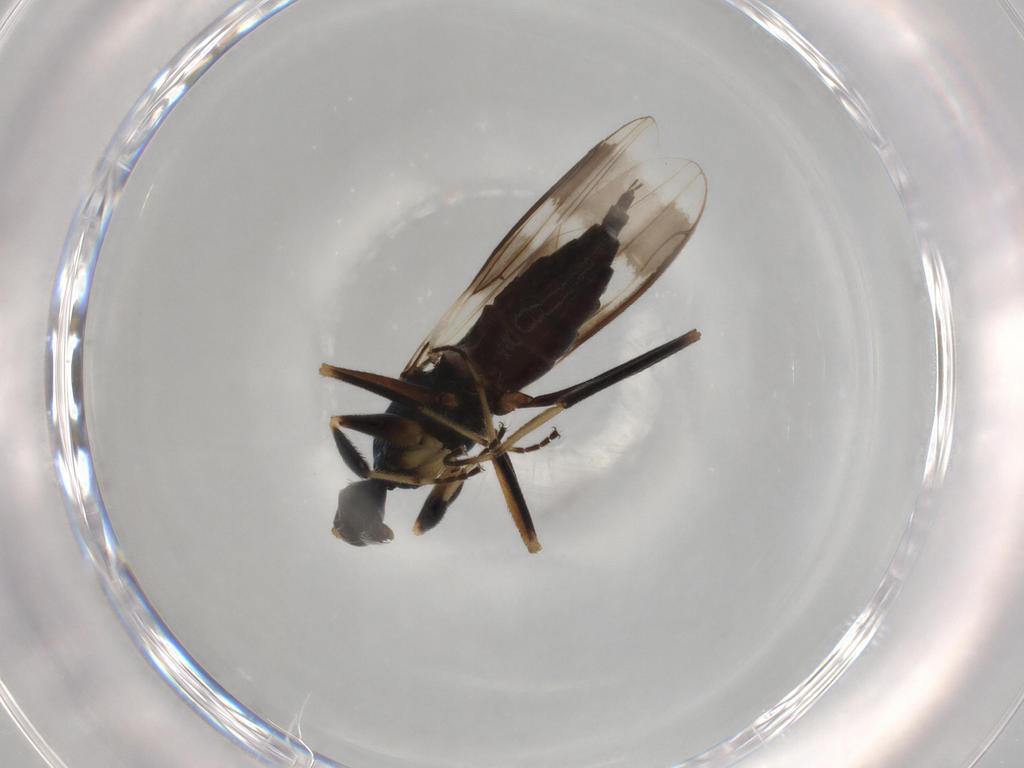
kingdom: Animalia
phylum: Arthropoda
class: Insecta
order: Diptera
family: Hybotidae
